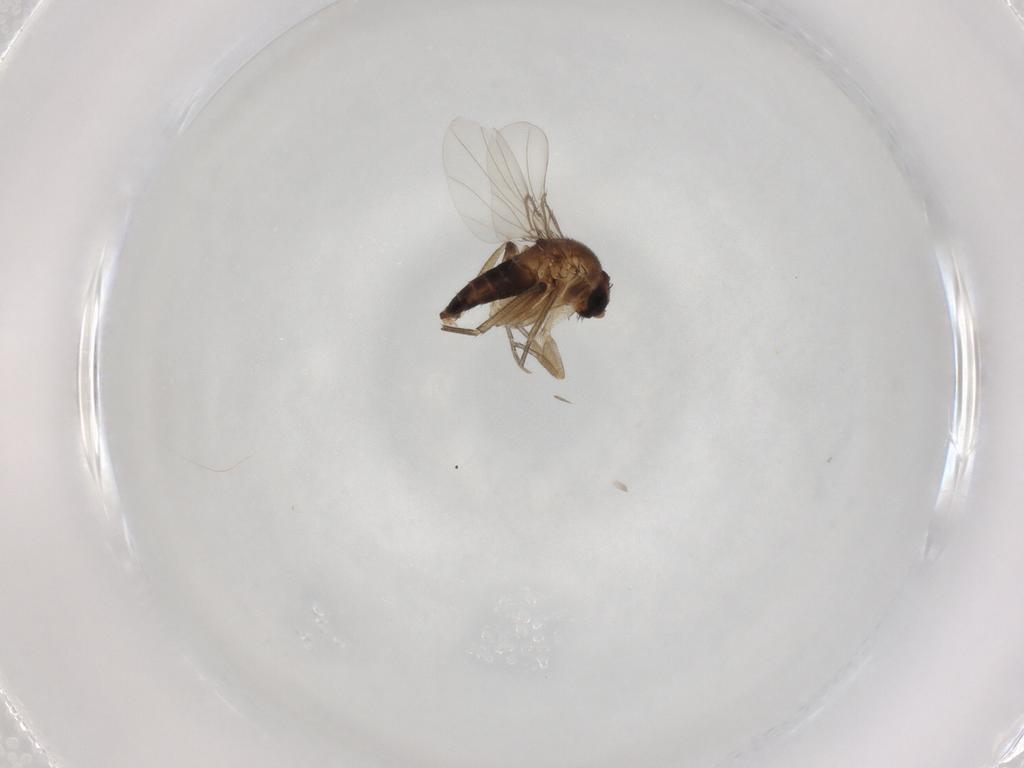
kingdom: Animalia
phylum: Arthropoda
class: Insecta
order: Diptera
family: Phoridae
